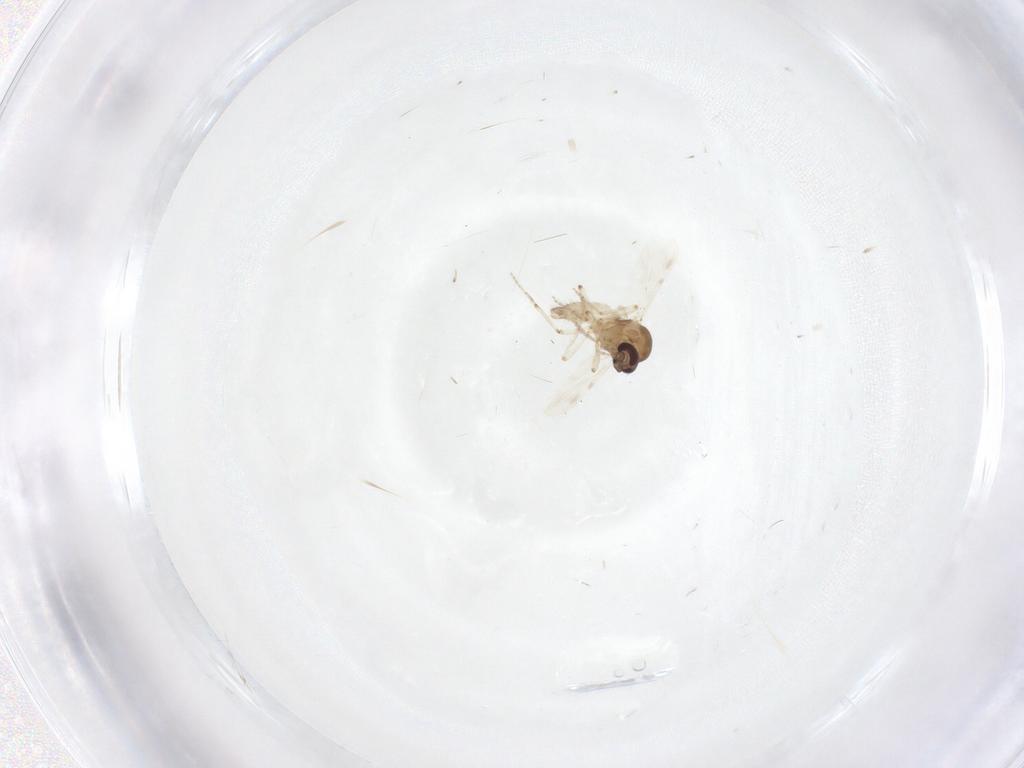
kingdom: Animalia
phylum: Arthropoda
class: Insecta
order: Diptera
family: Ceratopogonidae
